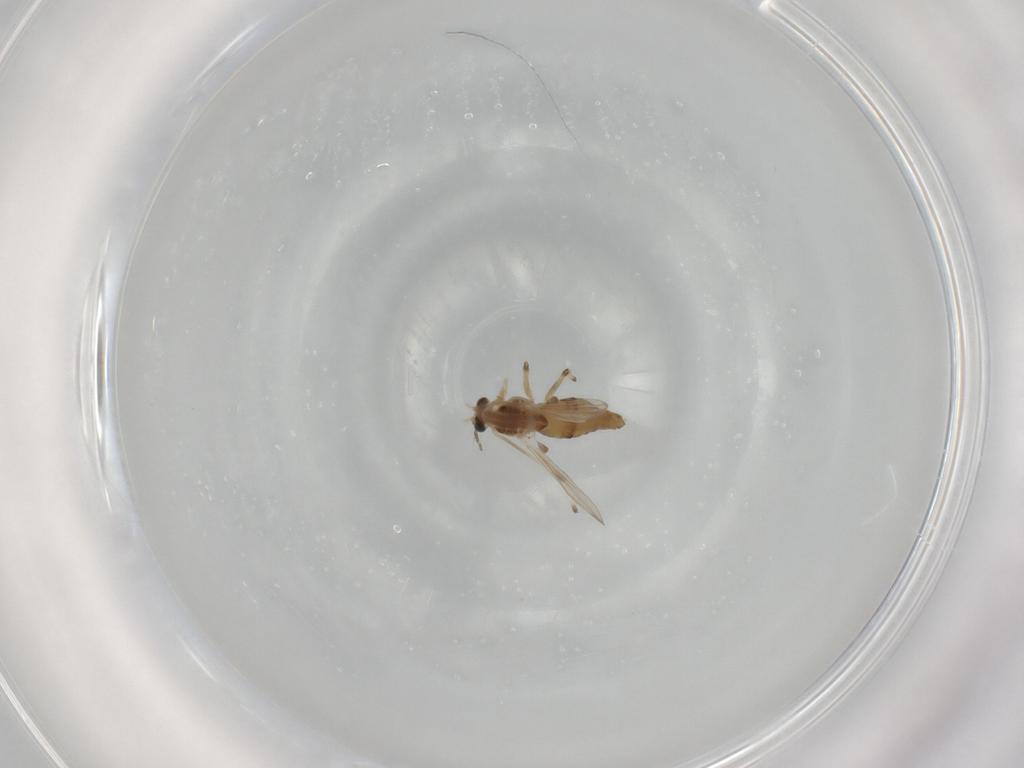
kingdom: Animalia
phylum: Arthropoda
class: Insecta
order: Diptera
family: Chironomidae
